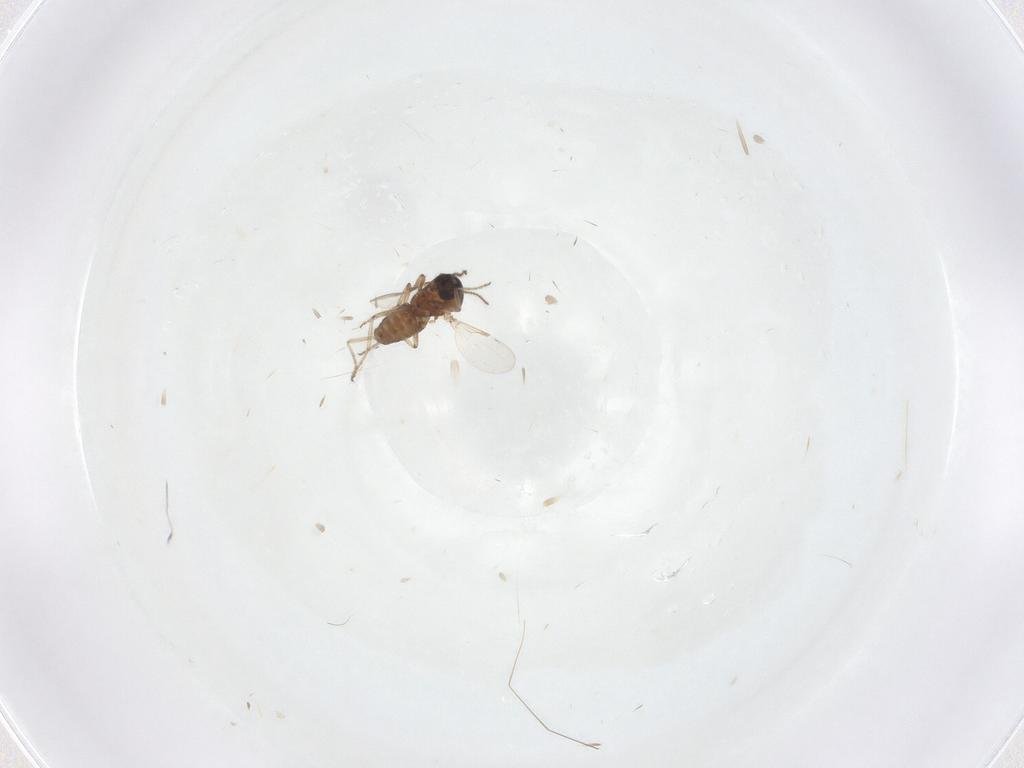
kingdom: Animalia
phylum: Arthropoda
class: Insecta
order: Diptera
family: Ceratopogonidae
